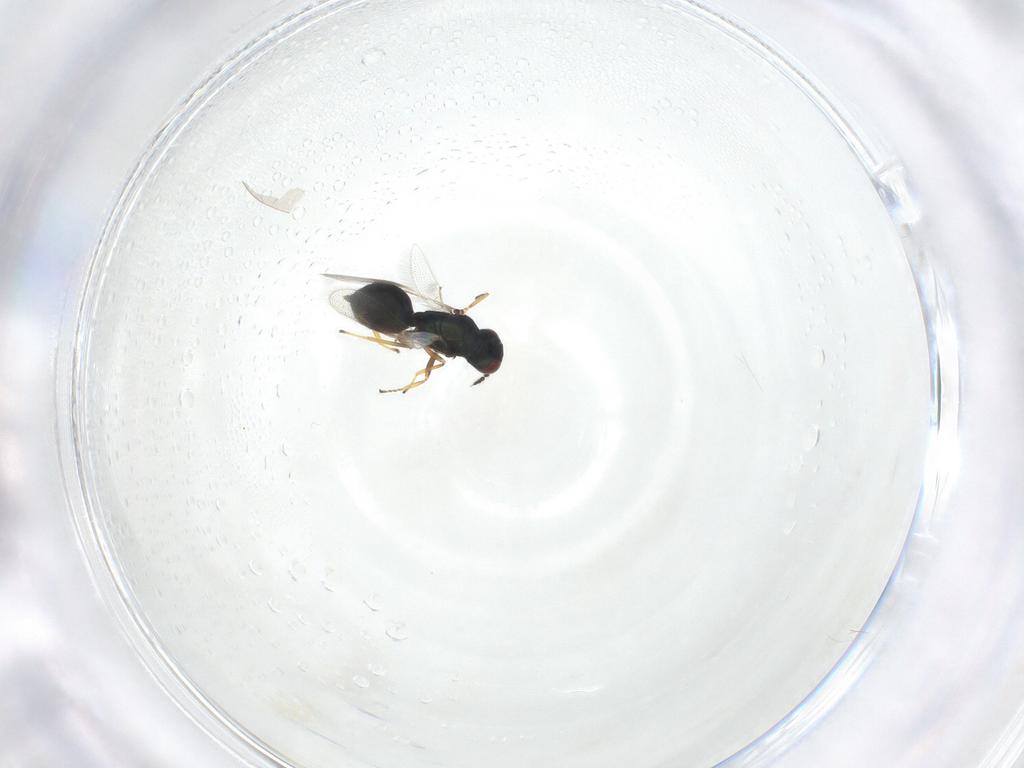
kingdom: Animalia
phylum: Arthropoda
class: Insecta
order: Hymenoptera
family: Eulophidae
